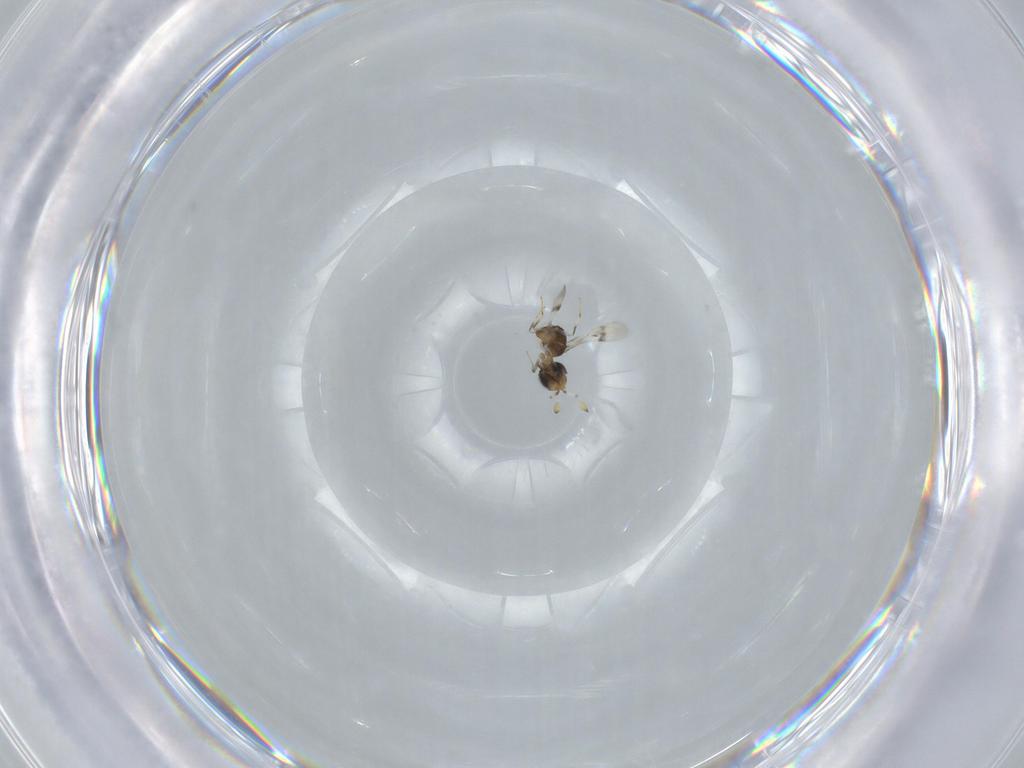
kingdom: Animalia
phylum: Arthropoda
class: Insecta
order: Hymenoptera
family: Scelionidae
